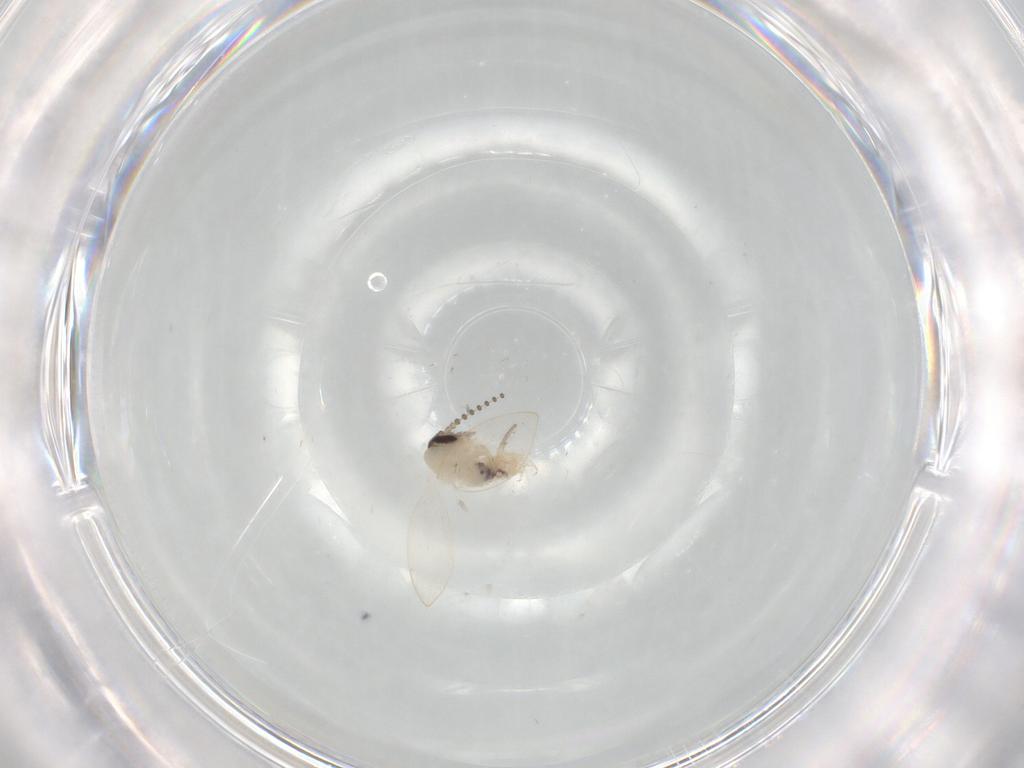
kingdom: Animalia
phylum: Arthropoda
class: Insecta
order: Diptera
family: Psychodidae
